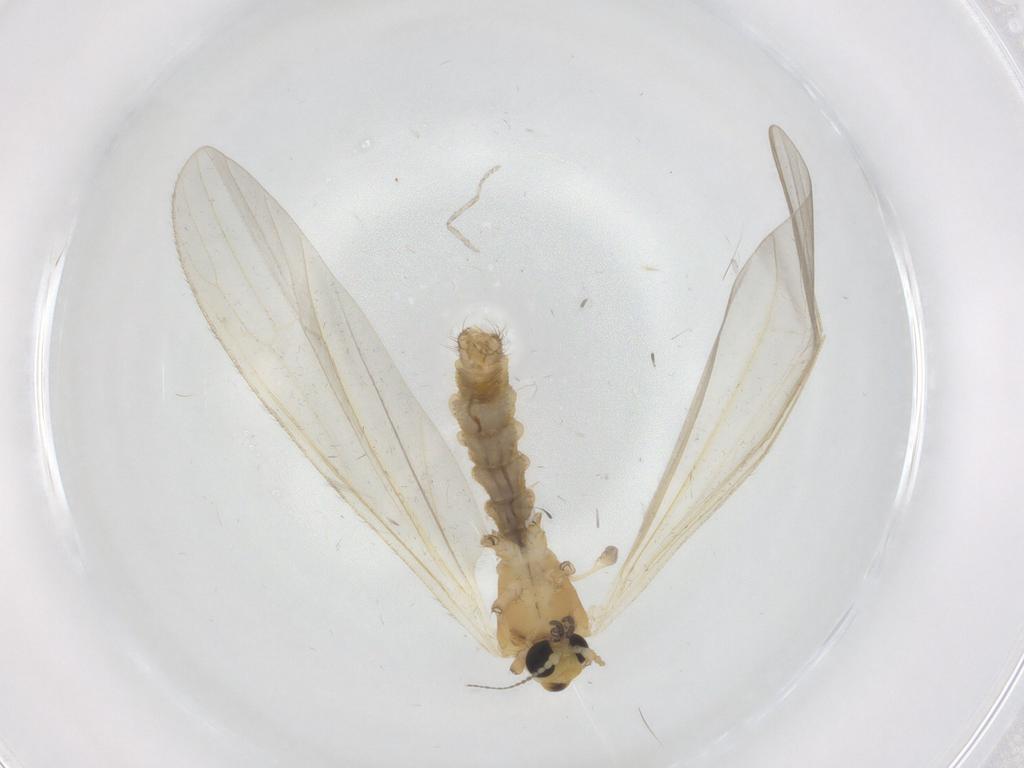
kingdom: Animalia
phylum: Arthropoda
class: Insecta
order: Diptera
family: Limoniidae
